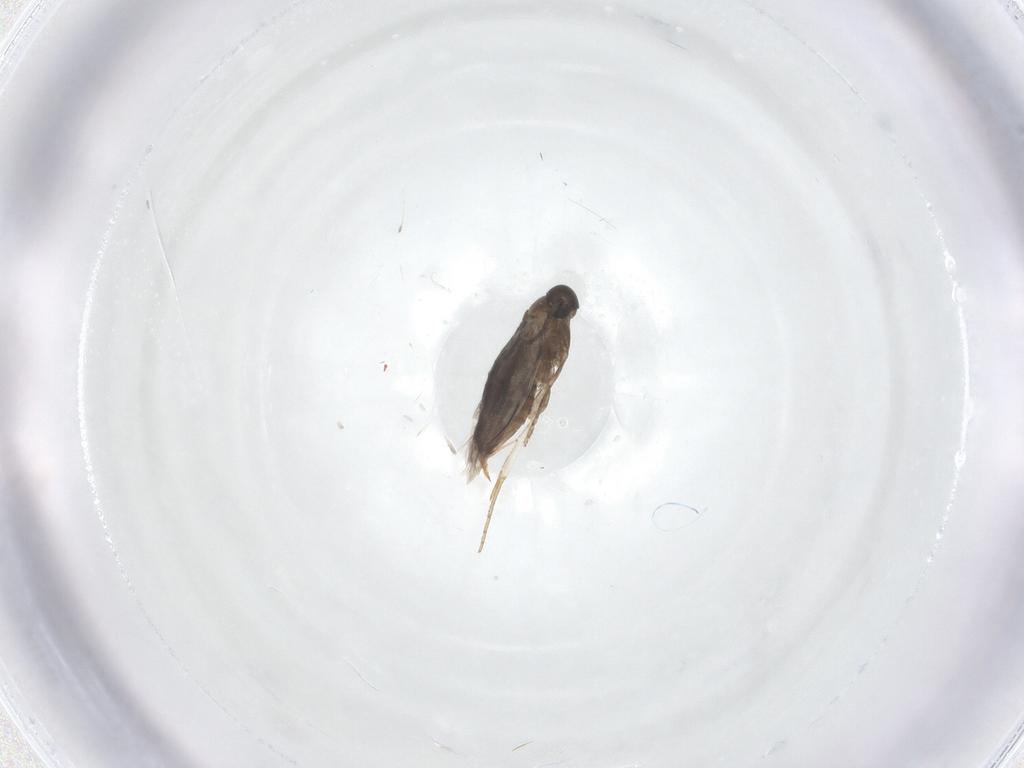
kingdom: Animalia
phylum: Arthropoda
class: Insecta
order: Lepidoptera
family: Heliozelidae
